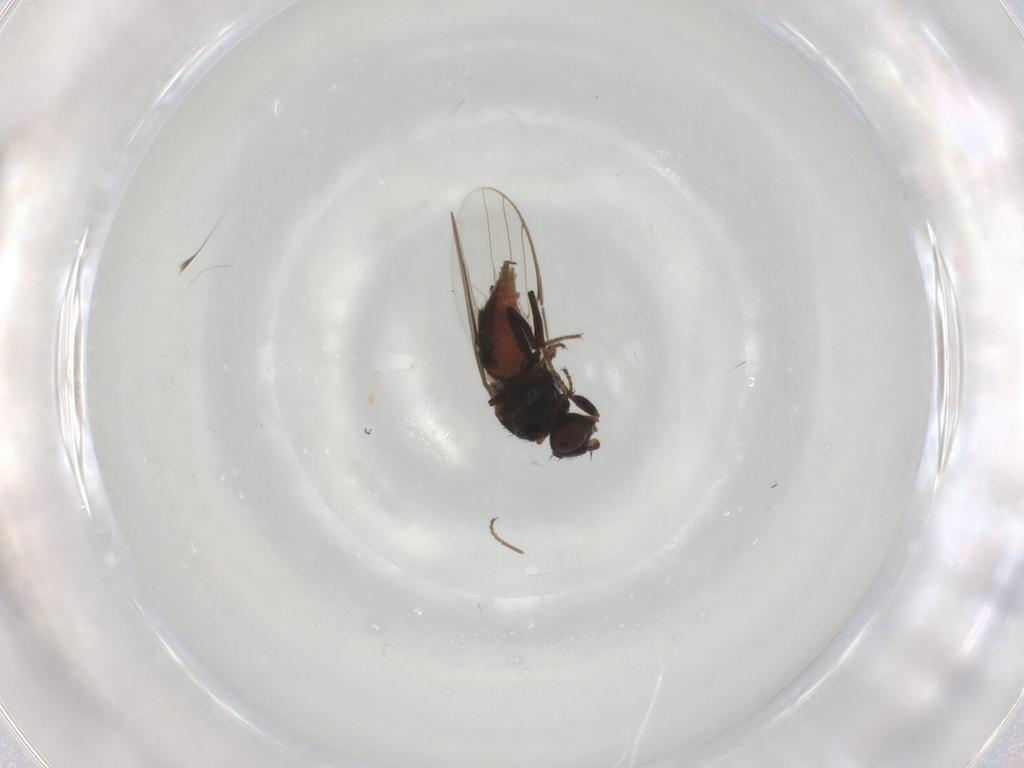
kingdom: Animalia
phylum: Arthropoda
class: Insecta
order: Diptera
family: Chloropidae
